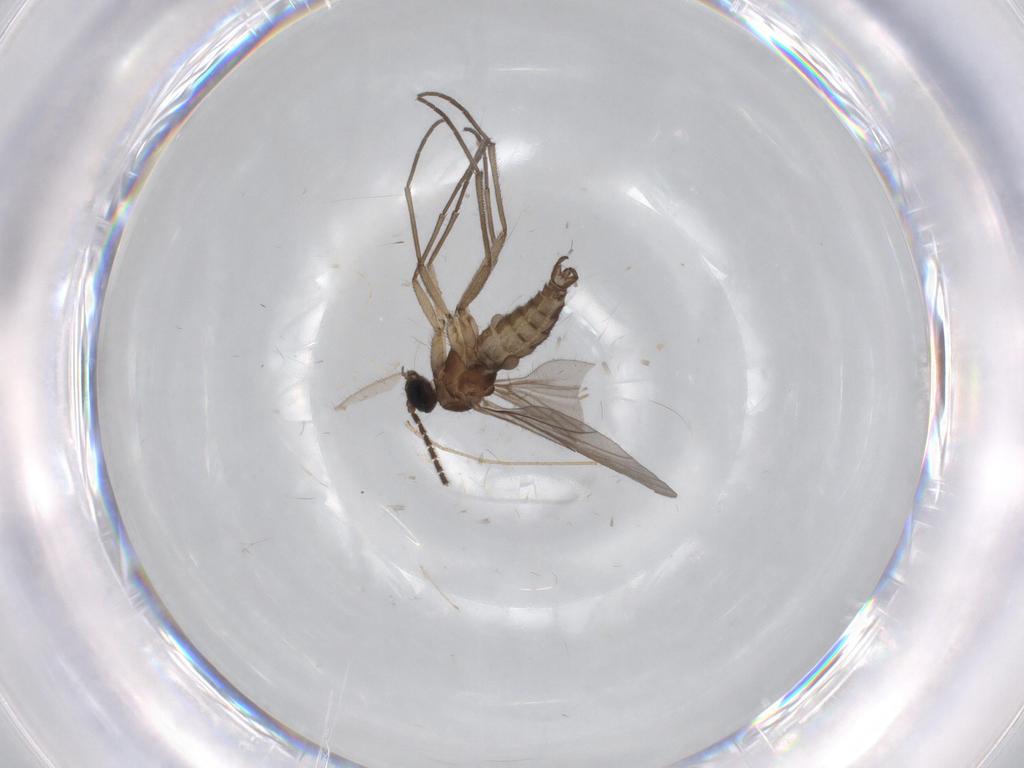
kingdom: Animalia
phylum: Arthropoda
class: Insecta
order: Diptera
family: Sciaridae
